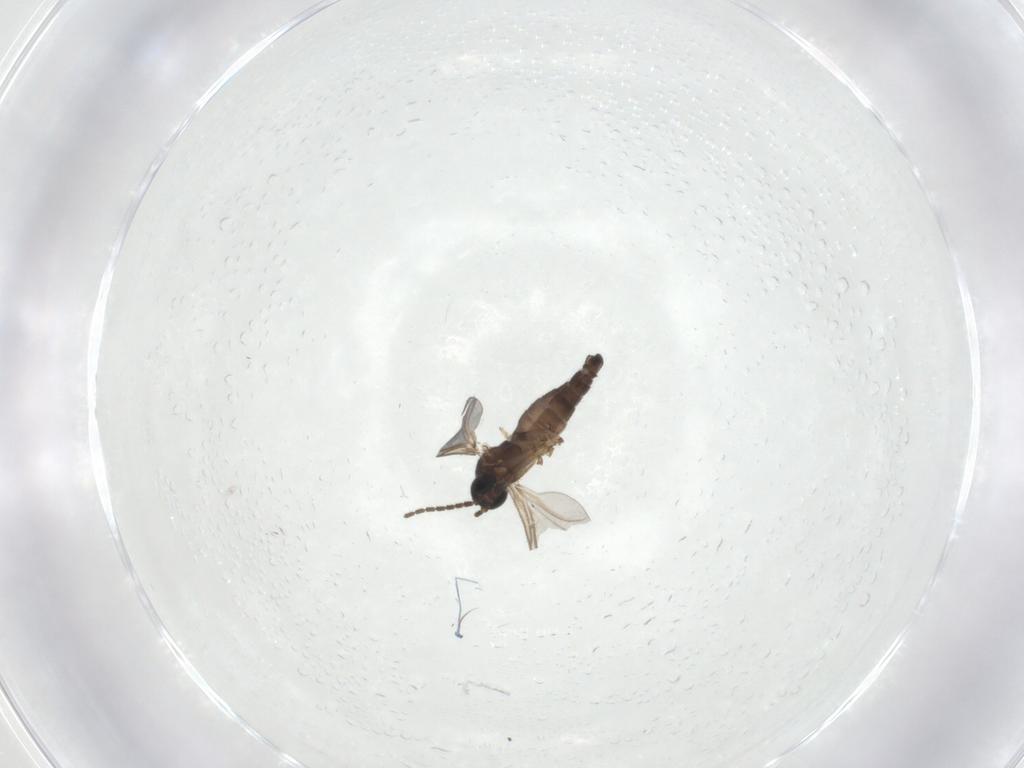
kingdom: Animalia
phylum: Arthropoda
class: Insecta
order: Diptera
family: Sciaridae
